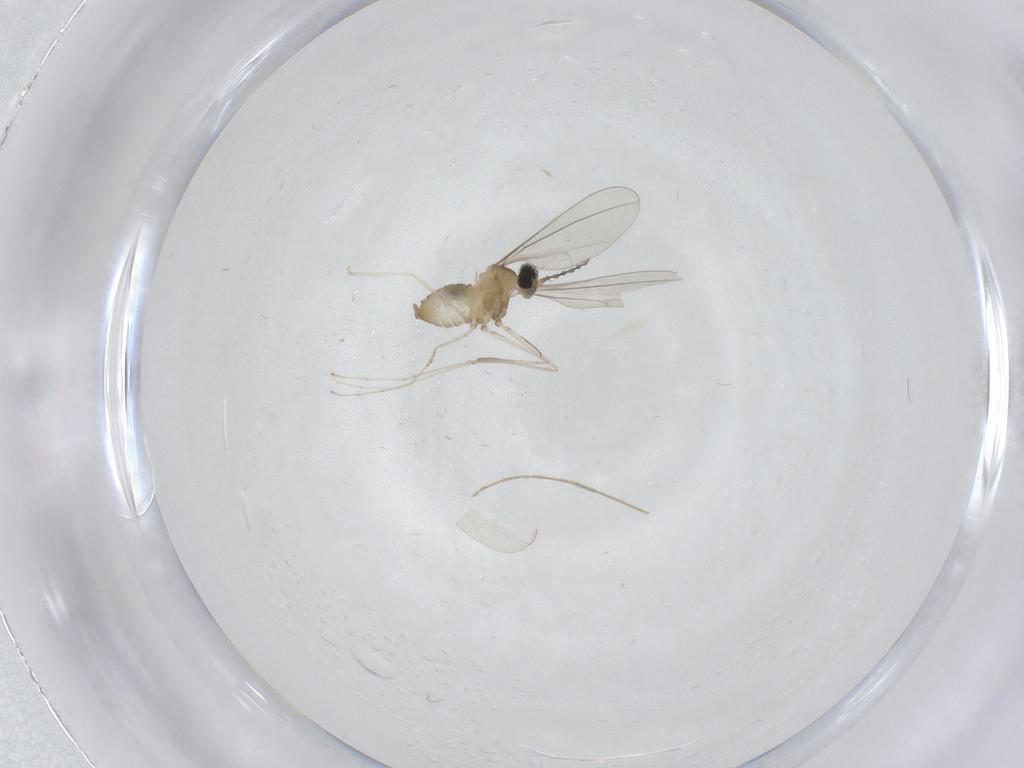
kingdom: Animalia
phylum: Arthropoda
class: Insecta
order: Diptera
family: Cecidomyiidae
